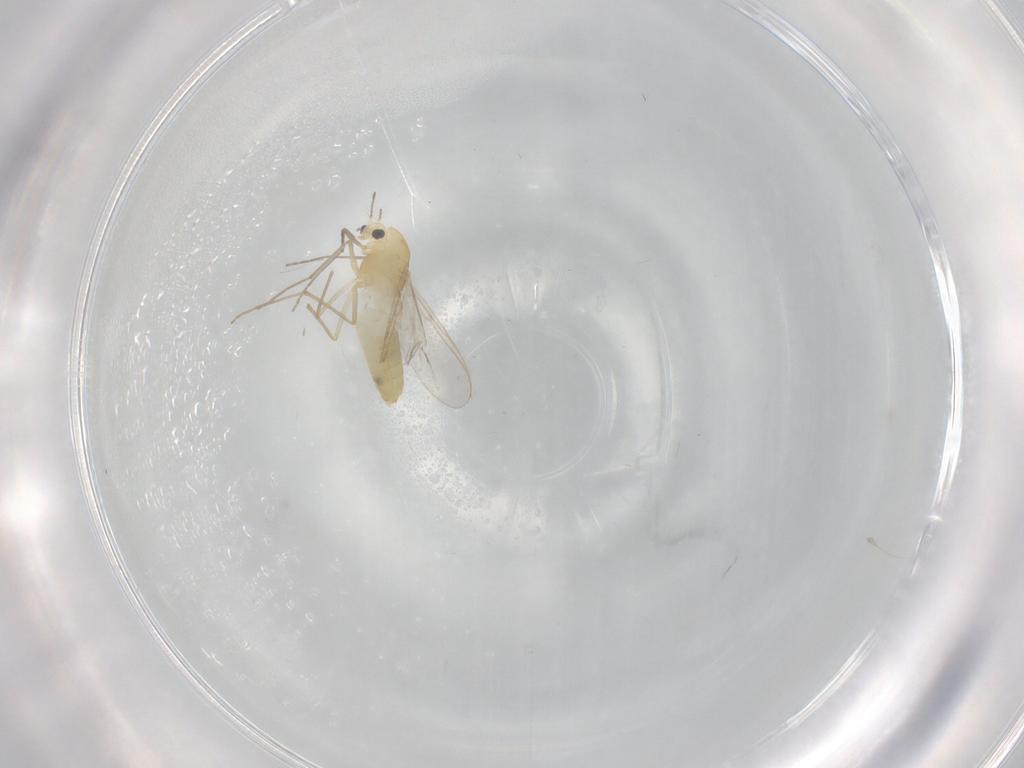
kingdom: Animalia
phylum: Arthropoda
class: Insecta
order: Diptera
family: Chironomidae
